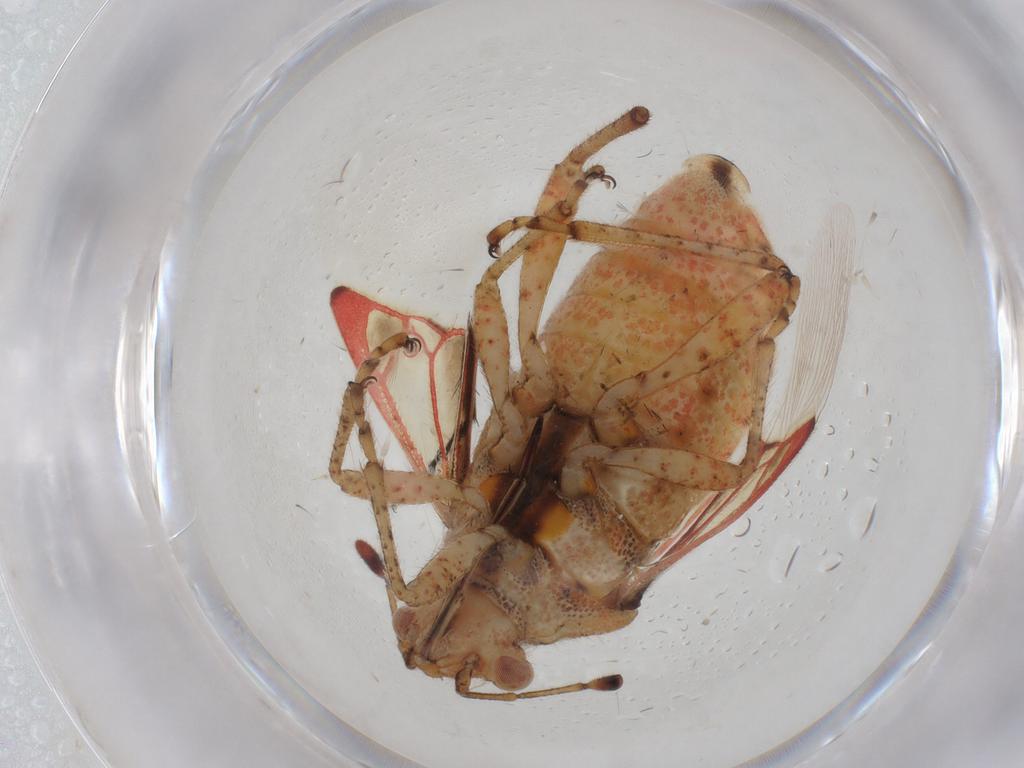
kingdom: Animalia
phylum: Arthropoda
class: Insecta
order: Hemiptera
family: Rhopalidae
